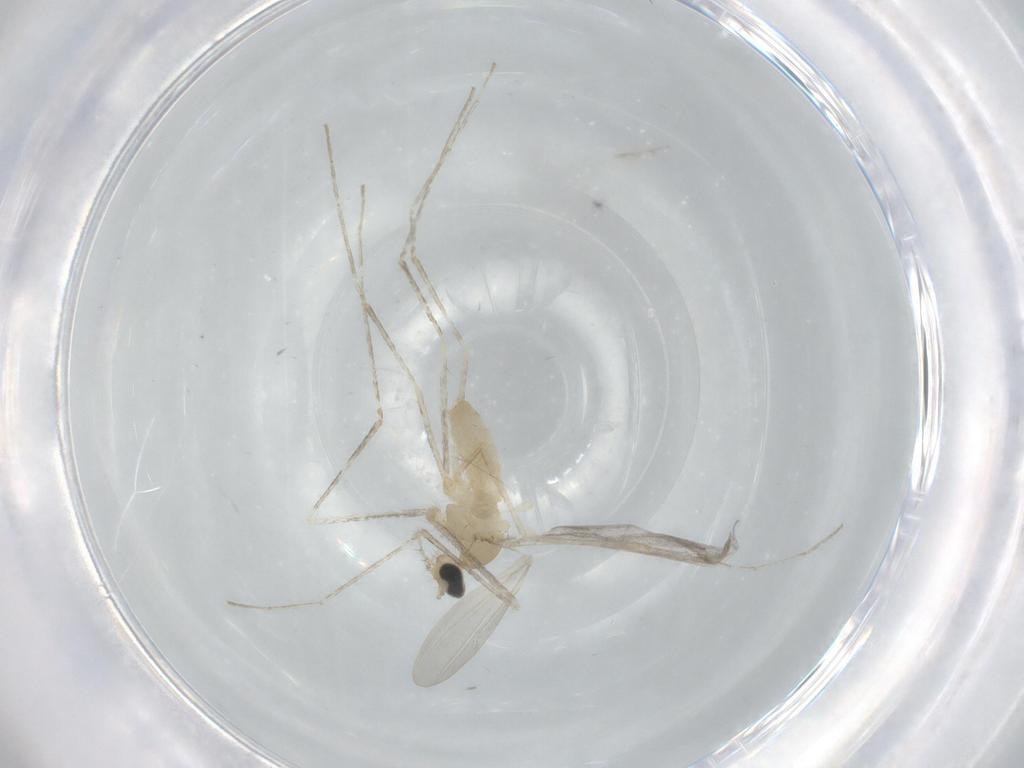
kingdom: Animalia
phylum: Arthropoda
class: Insecta
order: Diptera
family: Cecidomyiidae
